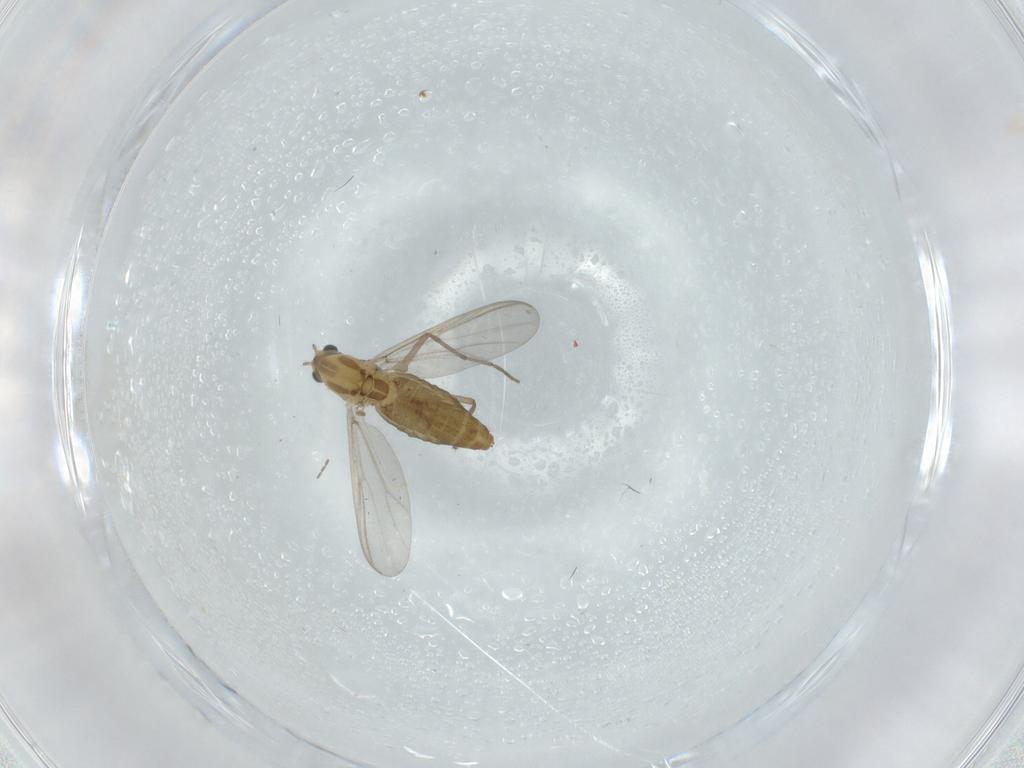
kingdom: Animalia
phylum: Arthropoda
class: Insecta
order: Diptera
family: Chironomidae
